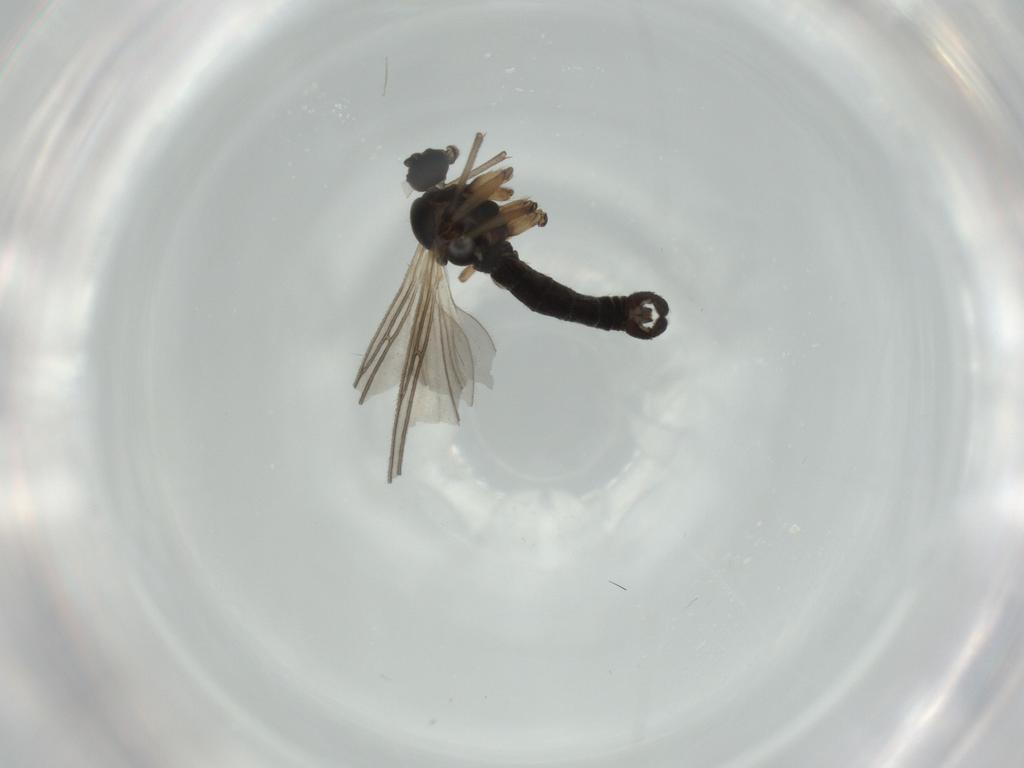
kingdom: Animalia
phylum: Arthropoda
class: Insecta
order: Diptera
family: Sciaridae
